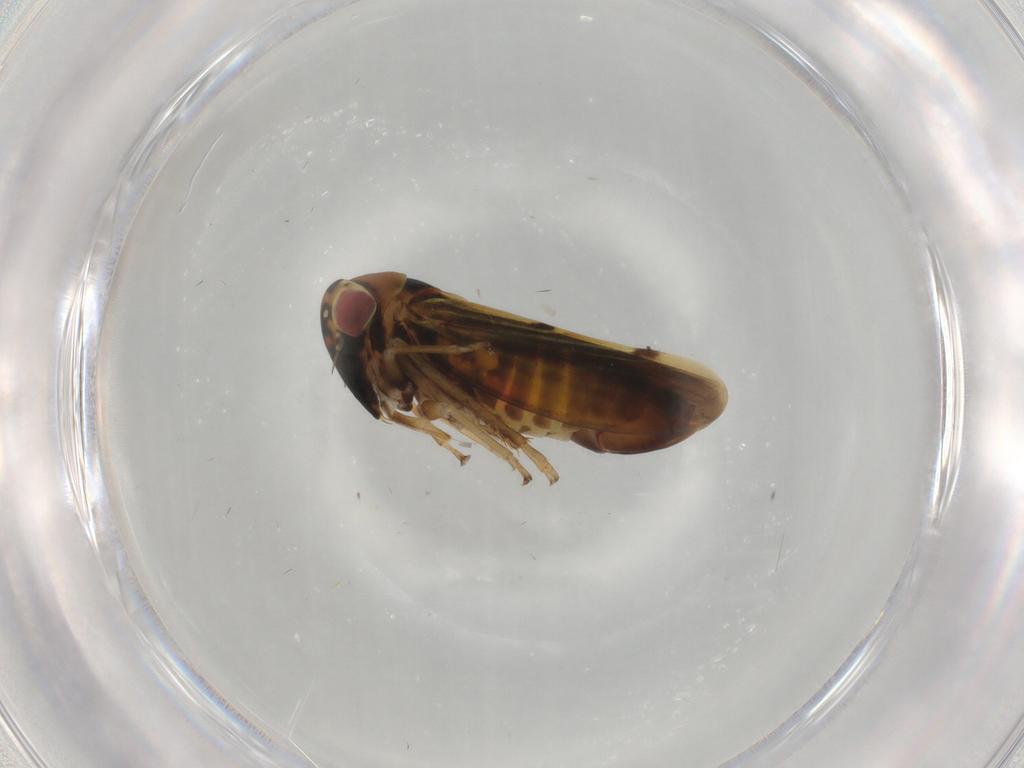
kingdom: Animalia
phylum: Arthropoda
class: Insecta
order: Hemiptera
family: Cicadellidae
